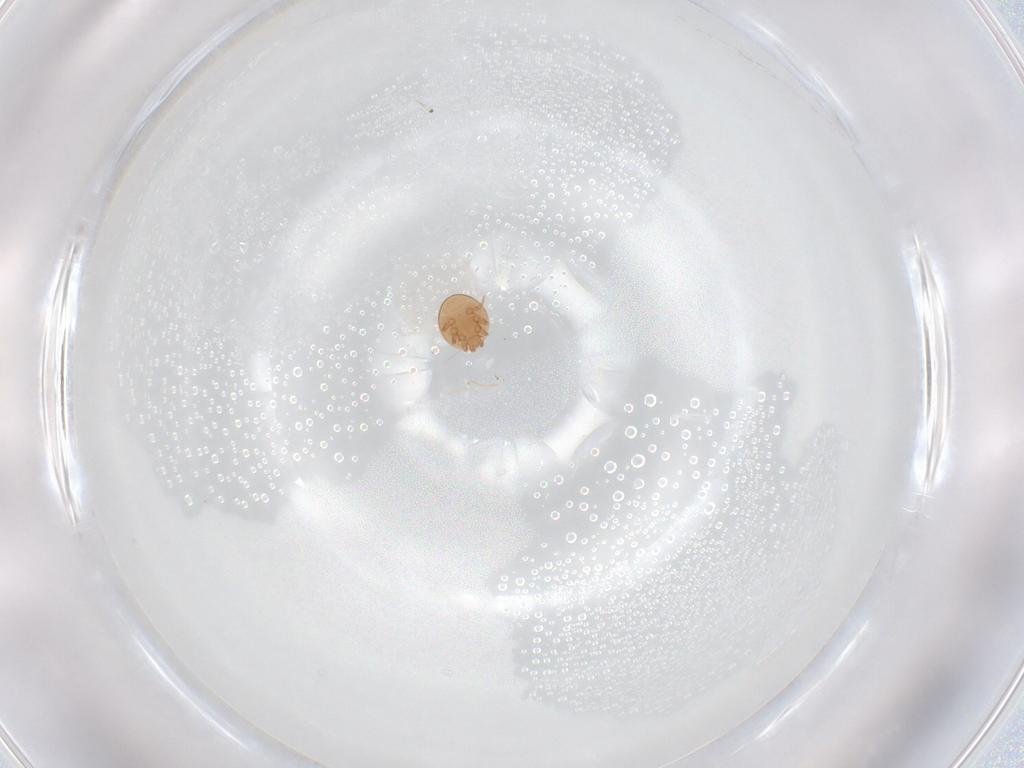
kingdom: Animalia
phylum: Arthropoda
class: Arachnida
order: Mesostigmata
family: Trematuridae
